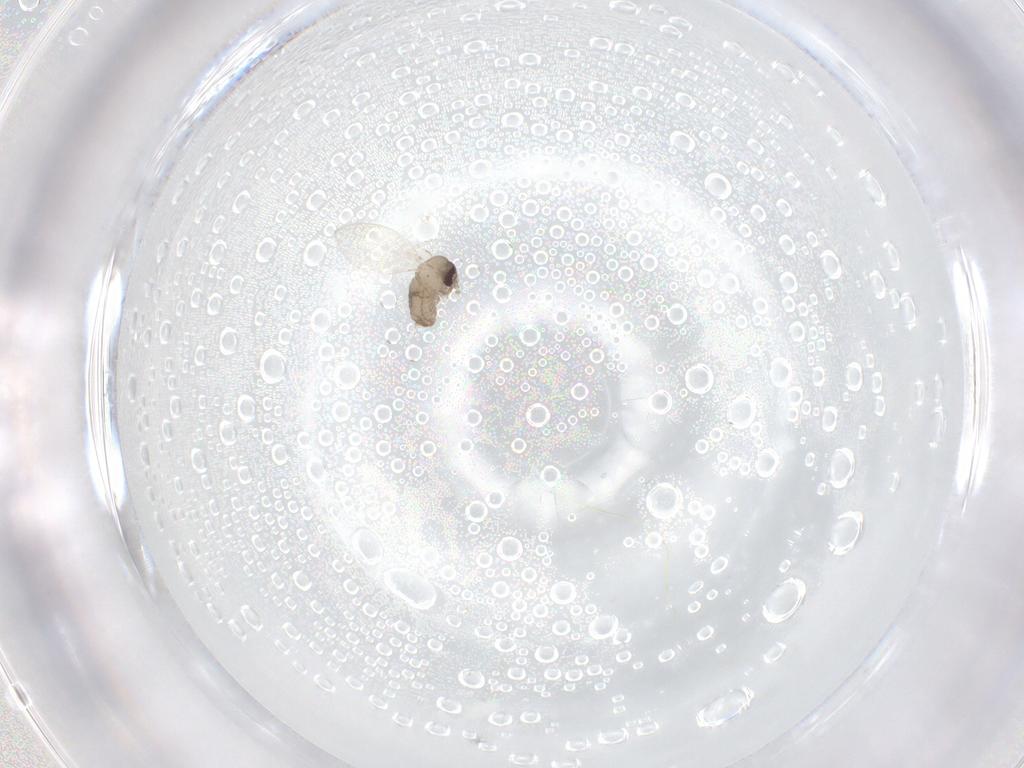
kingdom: Animalia
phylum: Arthropoda
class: Insecta
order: Diptera
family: Psychodidae
